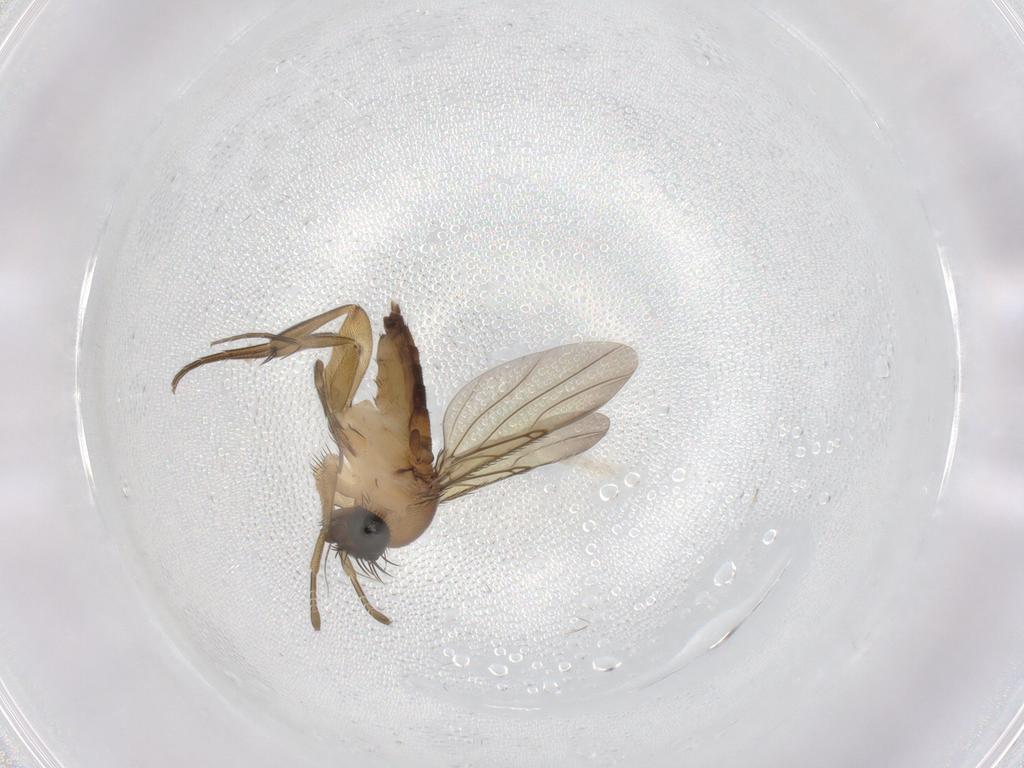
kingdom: Animalia
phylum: Arthropoda
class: Insecta
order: Diptera
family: Phoridae
